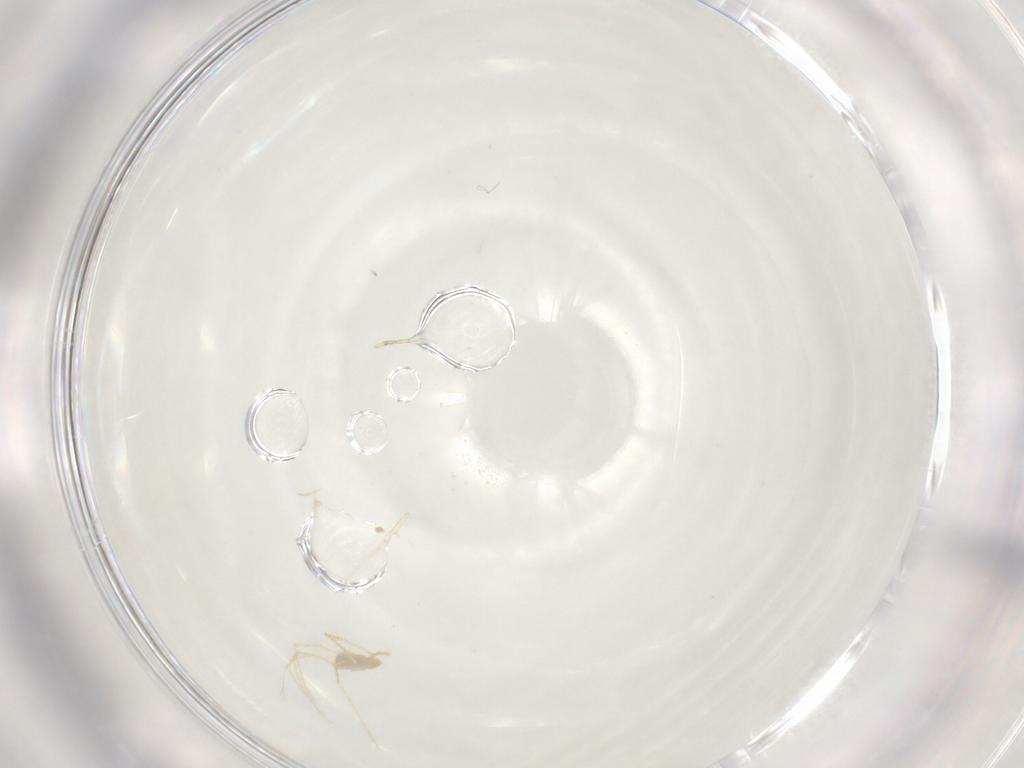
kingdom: Animalia
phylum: Arthropoda
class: Arachnida
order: Trombidiformes
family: Erythraeidae
